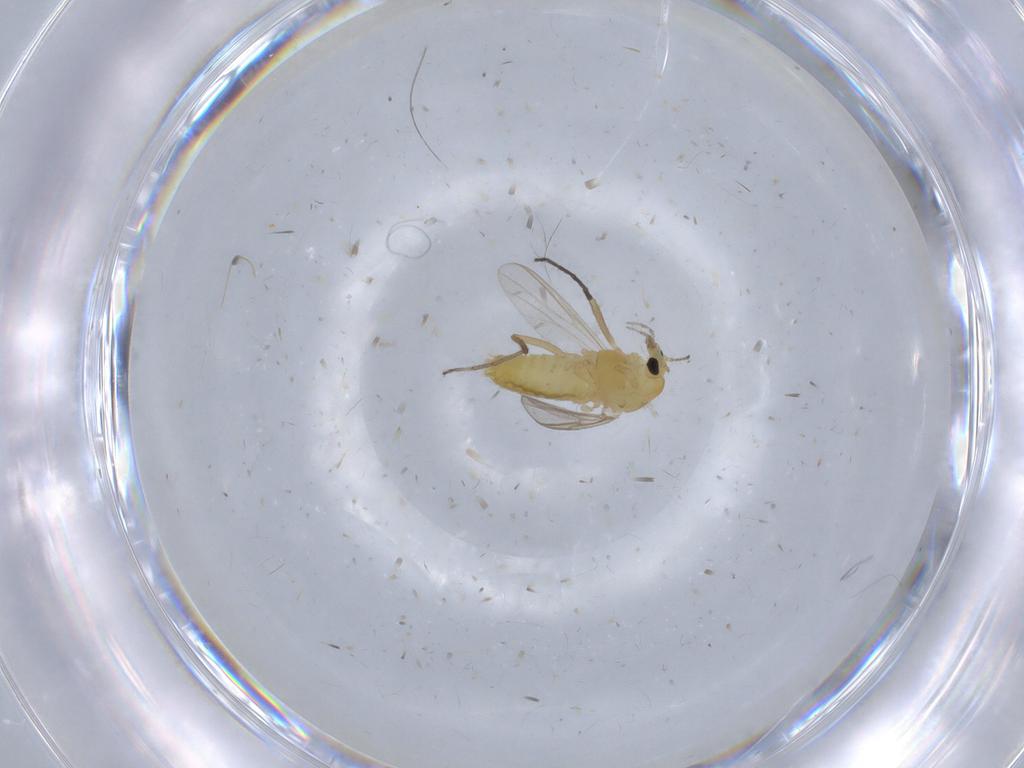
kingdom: Animalia
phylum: Arthropoda
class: Insecta
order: Diptera
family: Chironomidae
